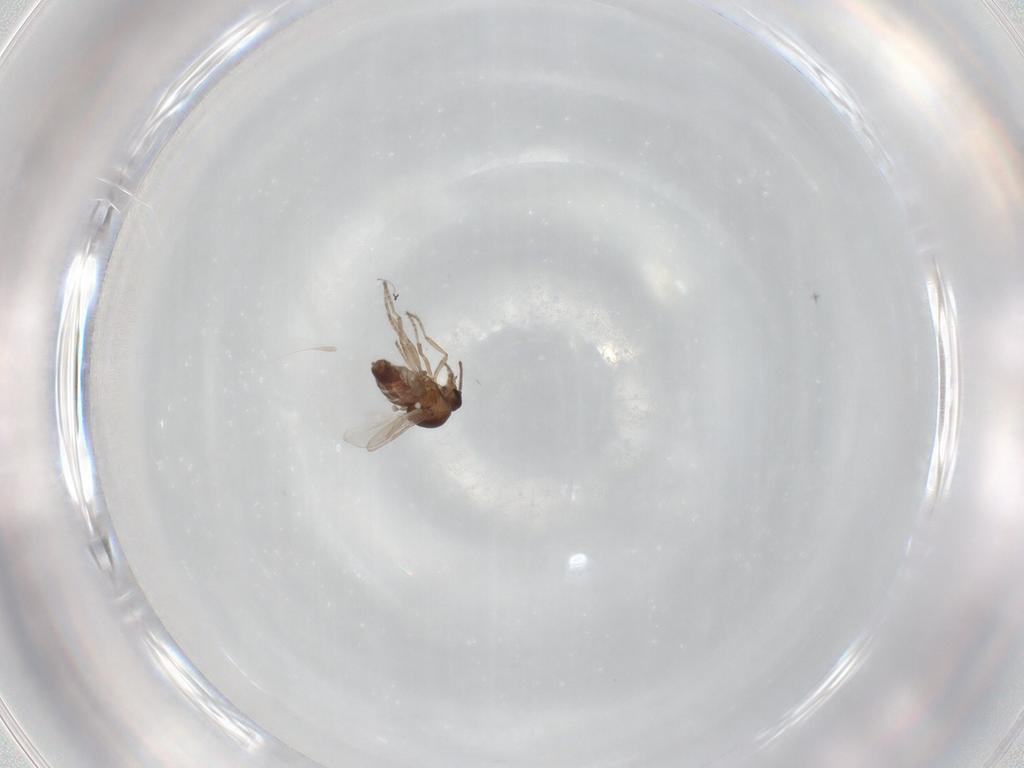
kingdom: Animalia
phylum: Arthropoda
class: Insecta
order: Diptera
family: Ceratopogonidae
